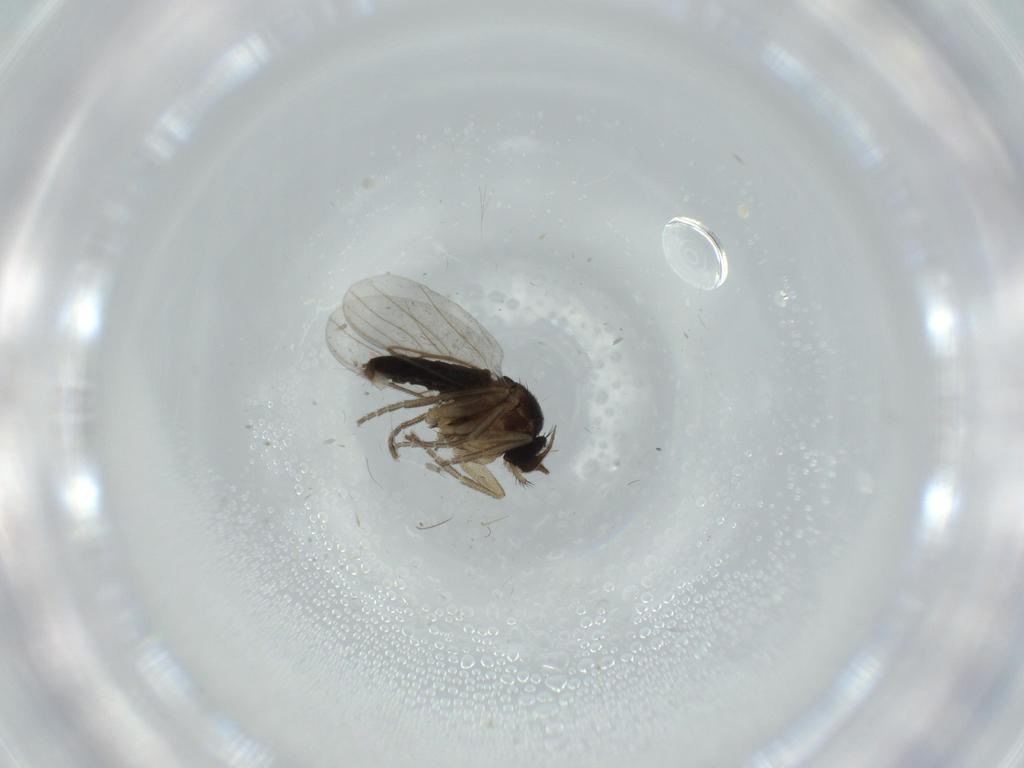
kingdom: Animalia
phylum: Arthropoda
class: Insecta
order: Diptera
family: Phoridae
